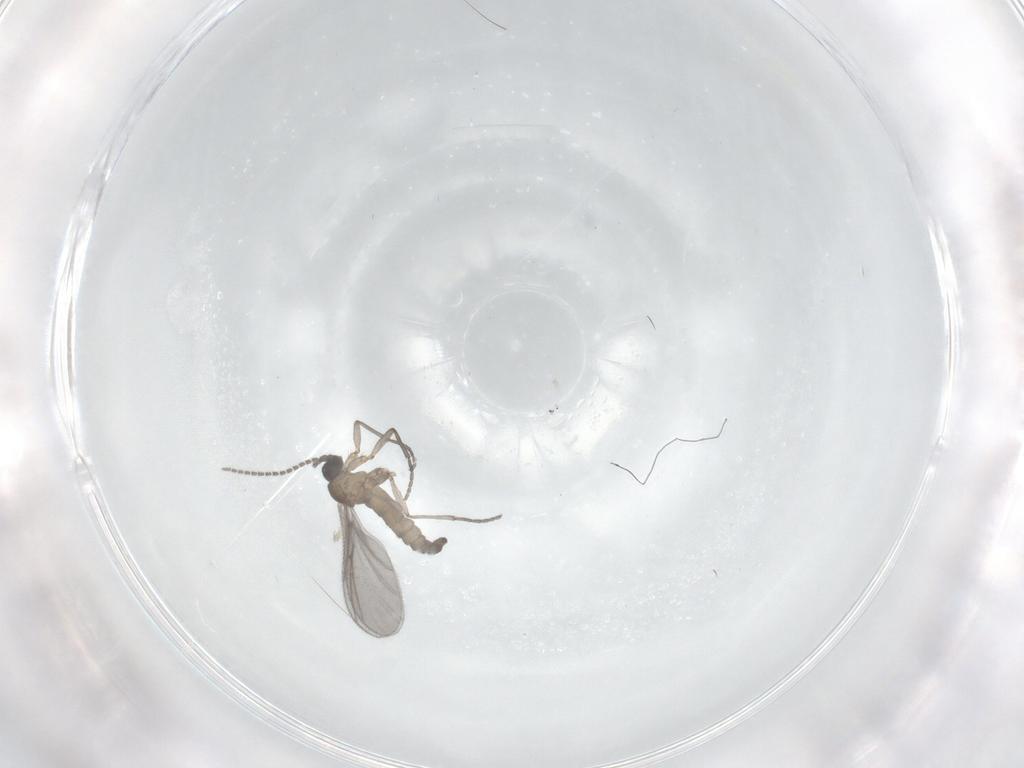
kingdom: Animalia
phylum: Arthropoda
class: Insecta
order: Diptera
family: Sciaridae
